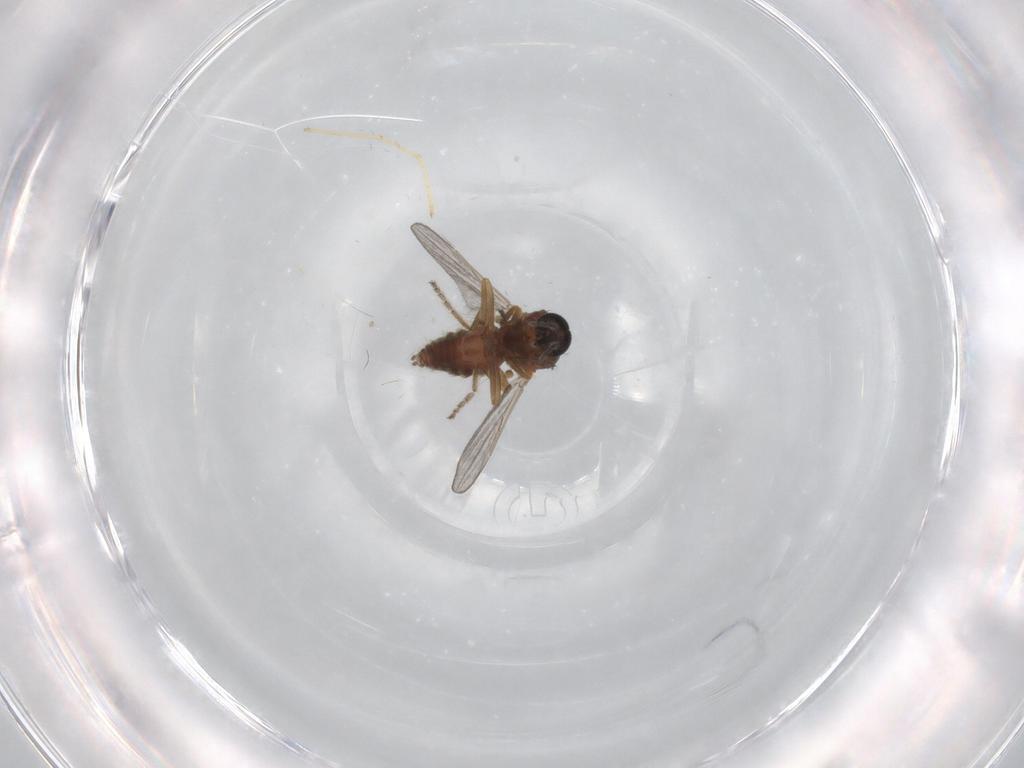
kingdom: Animalia
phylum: Arthropoda
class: Insecta
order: Diptera
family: Ceratopogonidae
